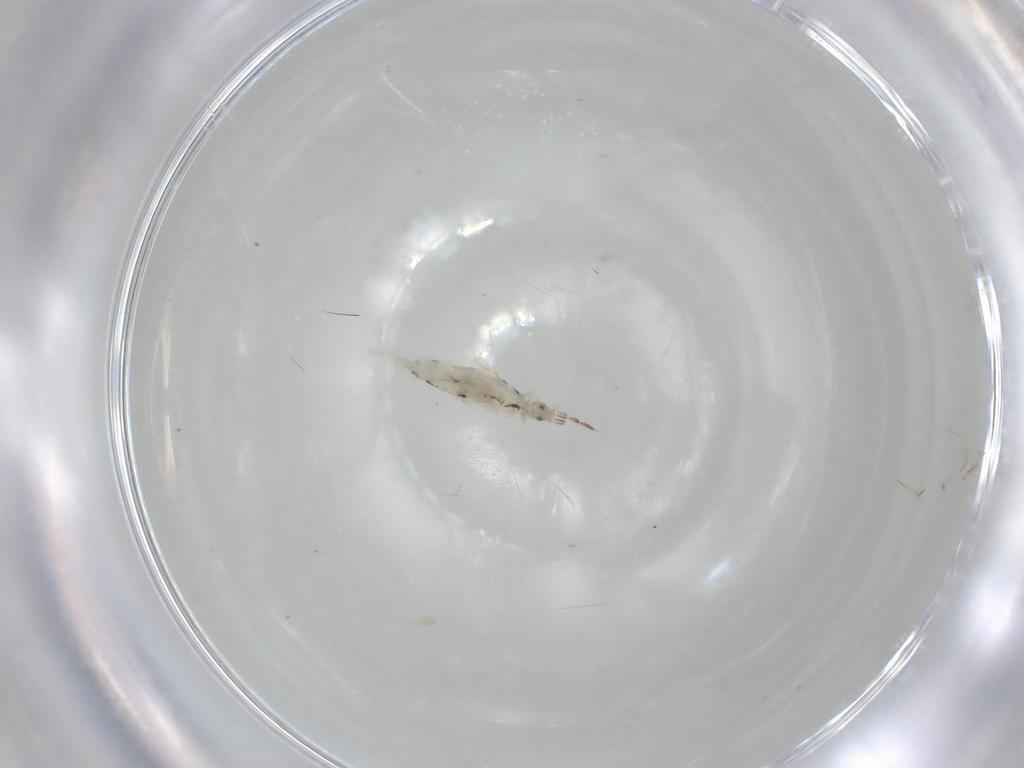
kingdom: Animalia
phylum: Arthropoda
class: Collembola
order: Entomobryomorpha
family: Entomobryidae
